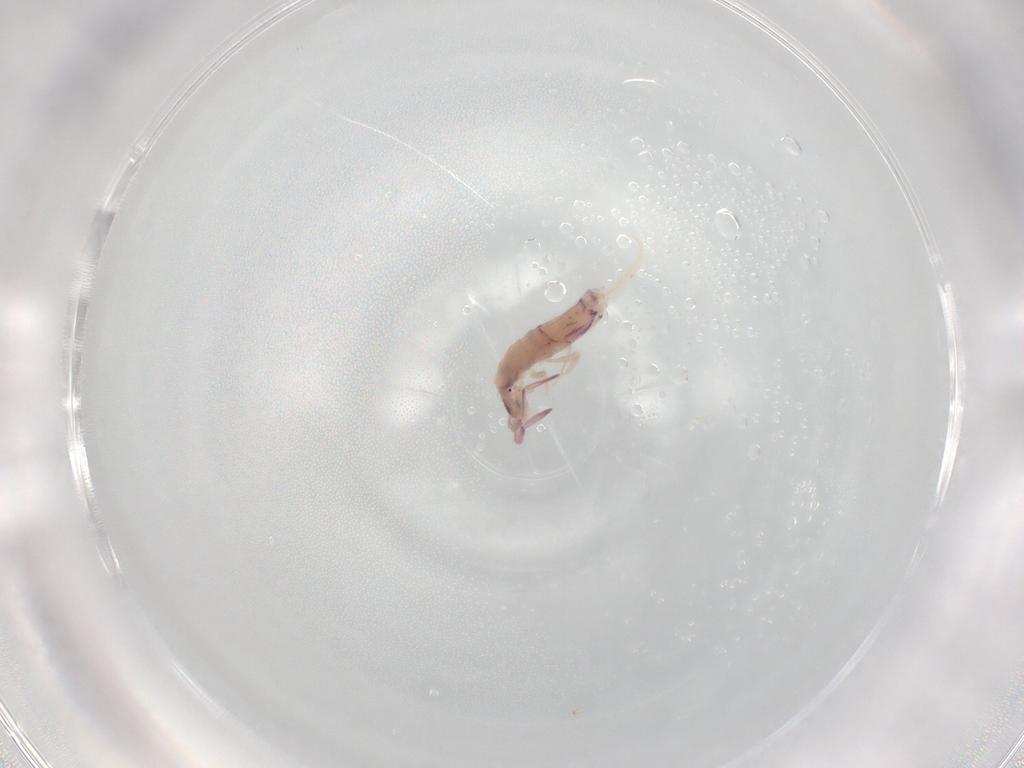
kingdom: Animalia
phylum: Arthropoda
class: Collembola
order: Entomobryomorpha
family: Entomobryidae
